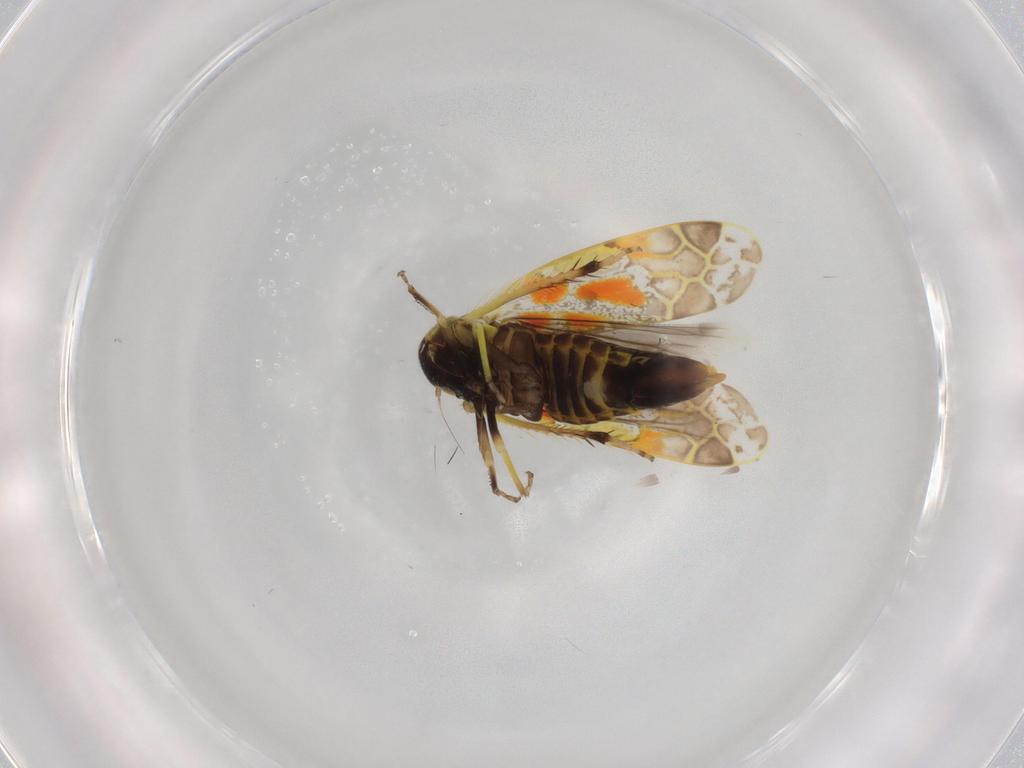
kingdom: Animalia
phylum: Arthropoda
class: Insecta
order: Hemiptera
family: Cicadellidae
